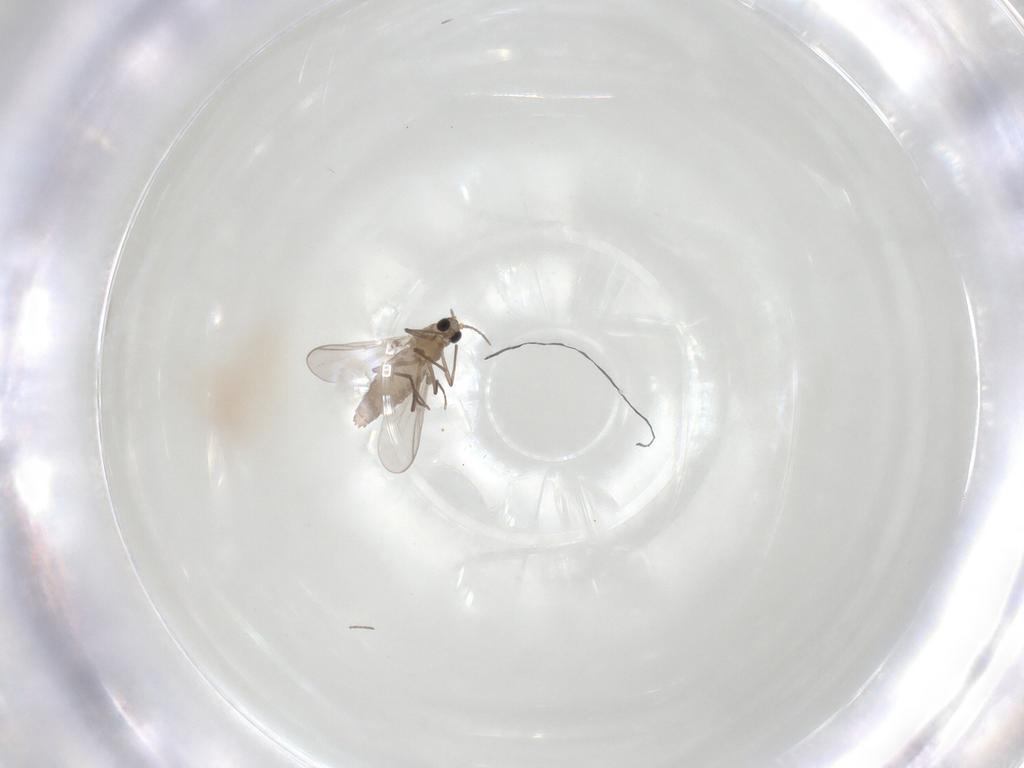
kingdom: Animalia
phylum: Arthropoda
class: Insecta
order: Diptera
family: Chironomidae
